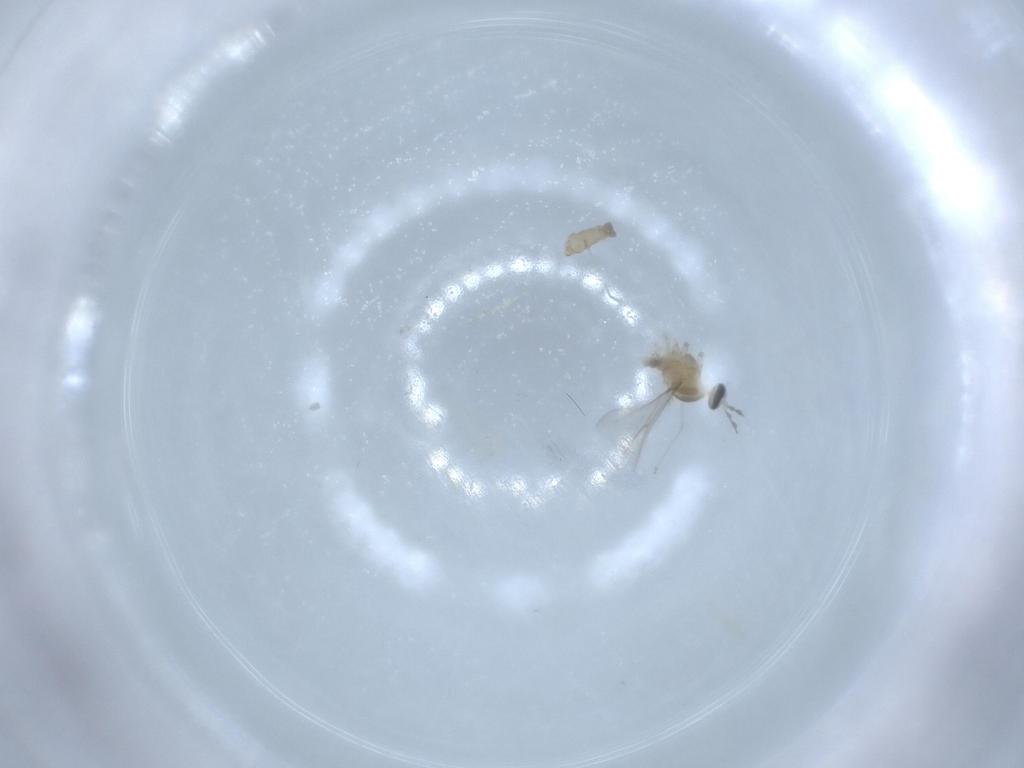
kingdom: Animalia
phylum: Arthropoda
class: Insecta
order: Diptera
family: Cecidomyiidae
